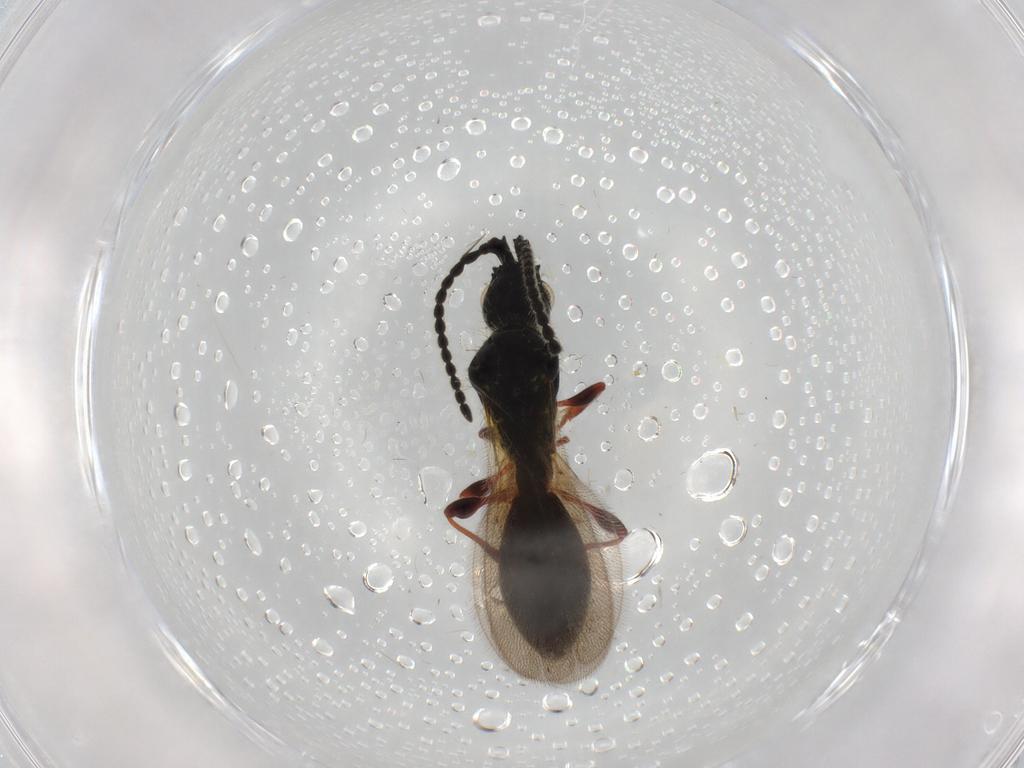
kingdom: Animalia
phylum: Arthropoda
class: Insecta
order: Hymenoptera
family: Diapriidae
